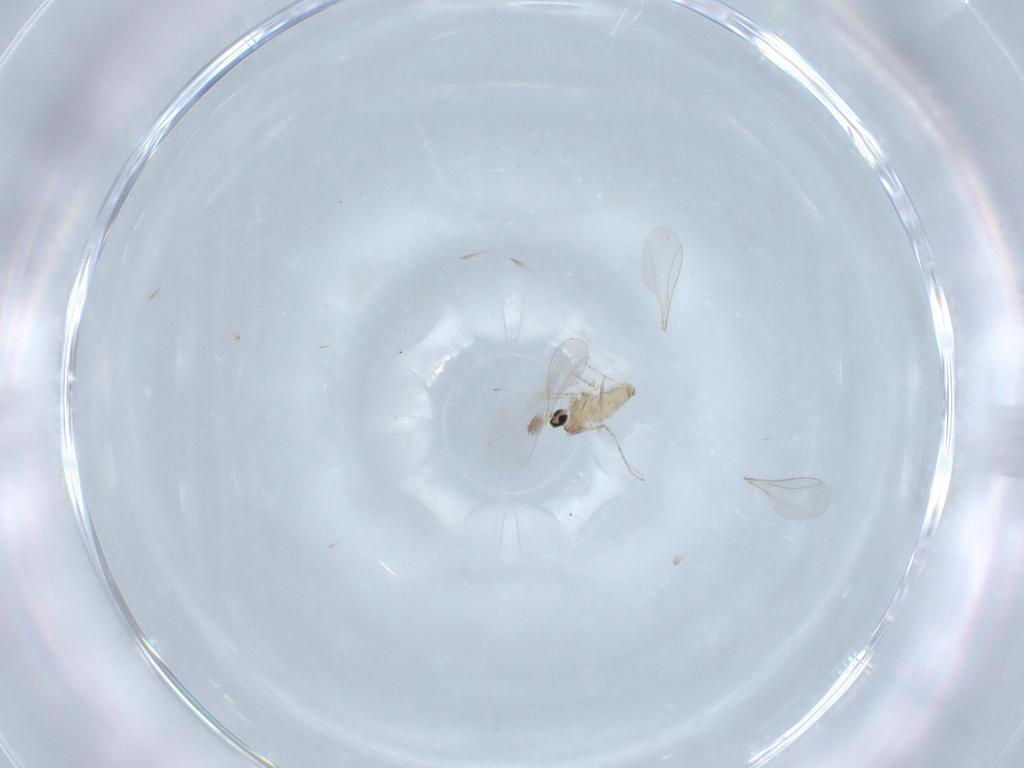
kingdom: Animalia
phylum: Arthropoda
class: Insecta
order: Diptera
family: Cecidomyiidae
